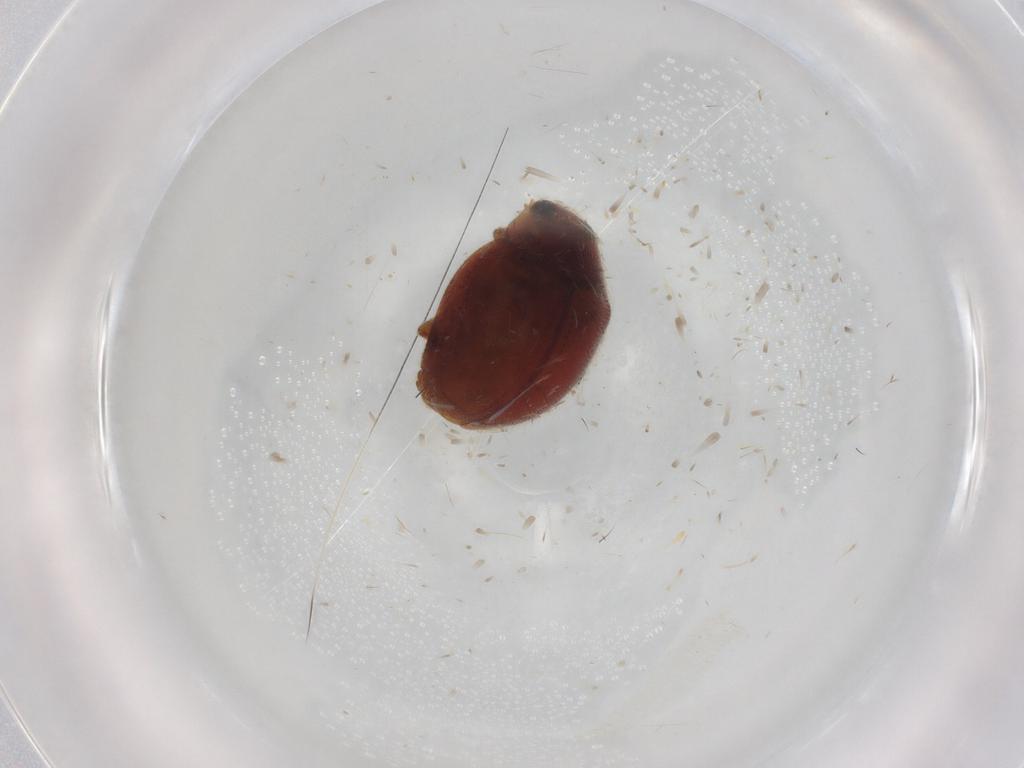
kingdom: Animalia
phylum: Arthropoda
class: Insecta
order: Coleoptera
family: Coccinellidae
